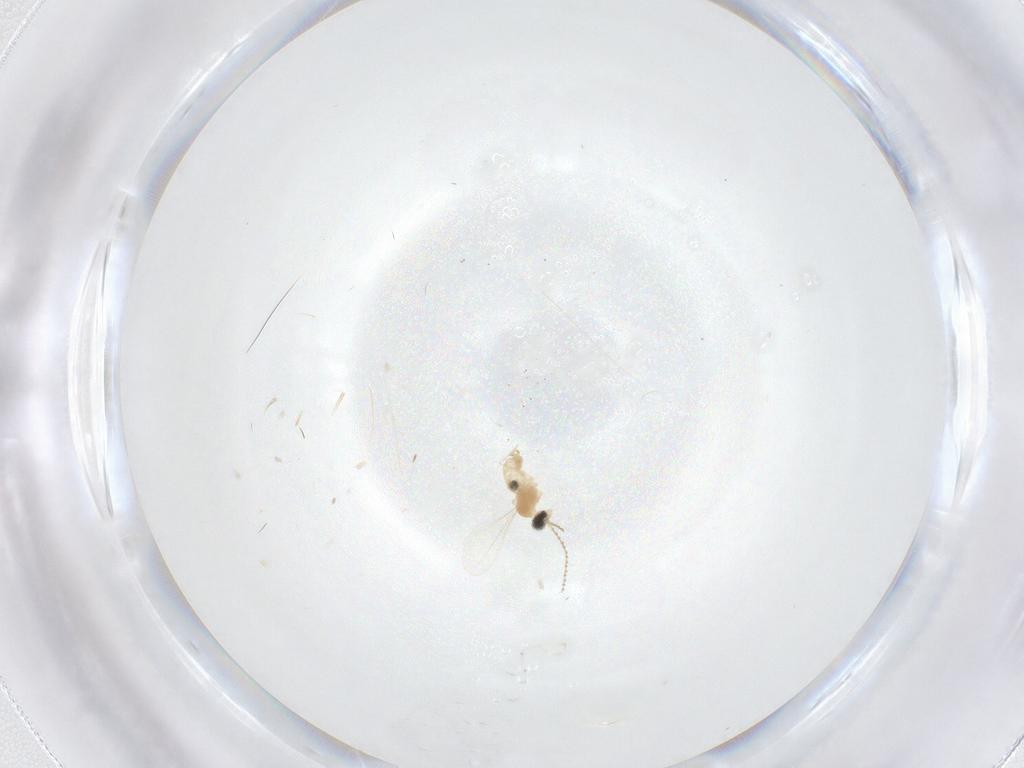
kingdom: Animalia
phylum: Arthropoda
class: Insecta
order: Diptera
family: Cecidomyiidae
